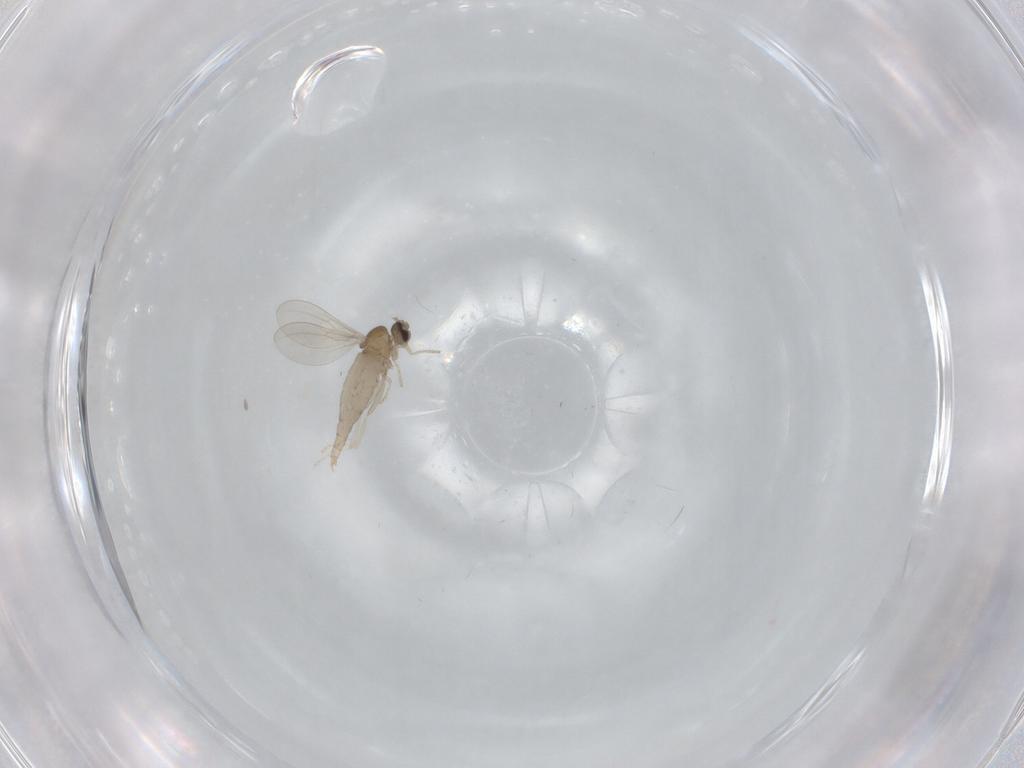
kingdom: Animalia
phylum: Arthropoda
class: Insecta
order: Diptera
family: Cecidomyiidae
